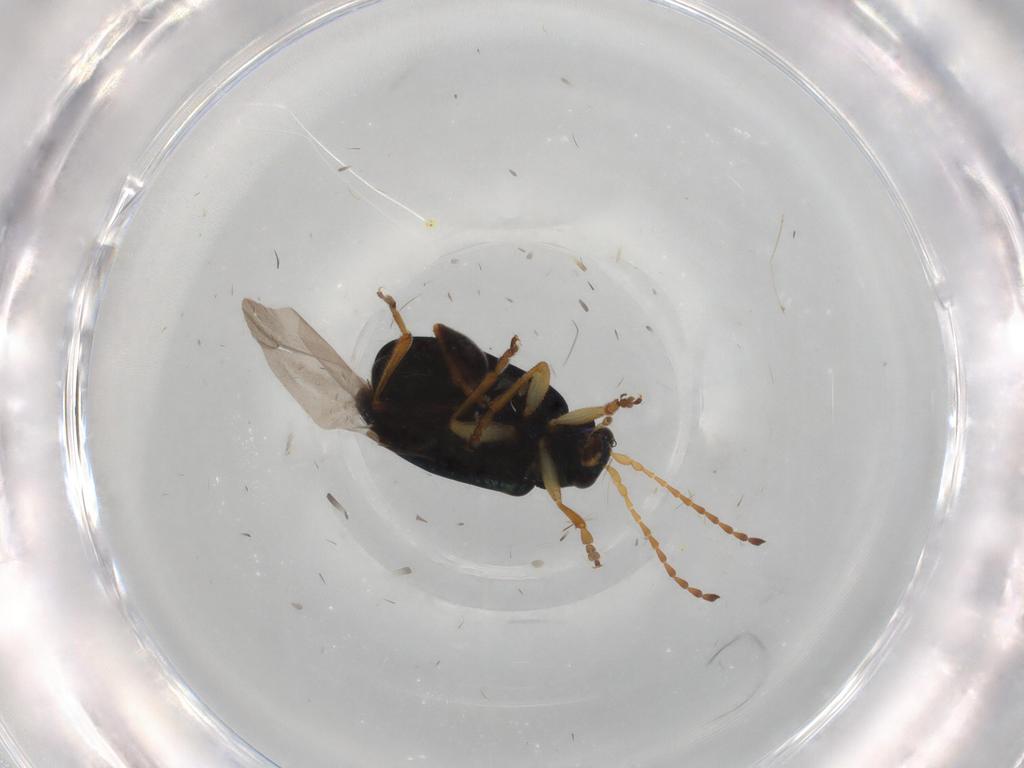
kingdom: Animalia
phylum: Arthropoda
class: Insecta
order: Coleoptera
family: Chrysomelidae
